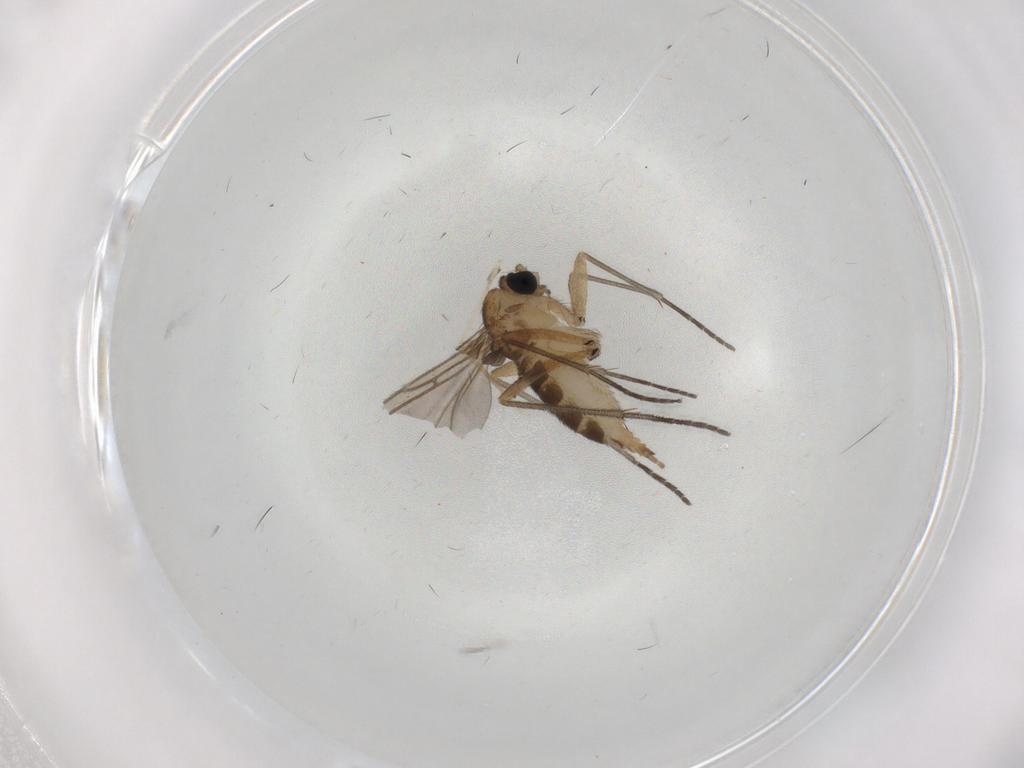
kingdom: Animalia
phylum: Arthropoda
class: Insecta
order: Diptera
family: Sciaridae
